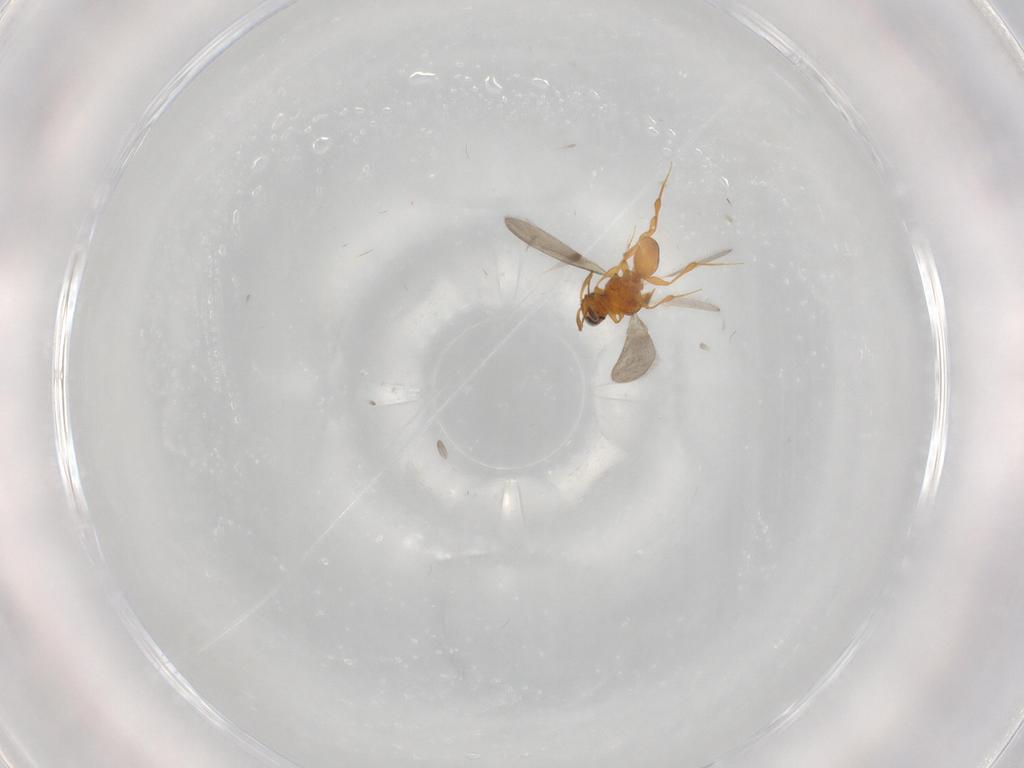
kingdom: Animalia
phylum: Arthropoda
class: Insecta
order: Hymenoptera
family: Platygastridae
